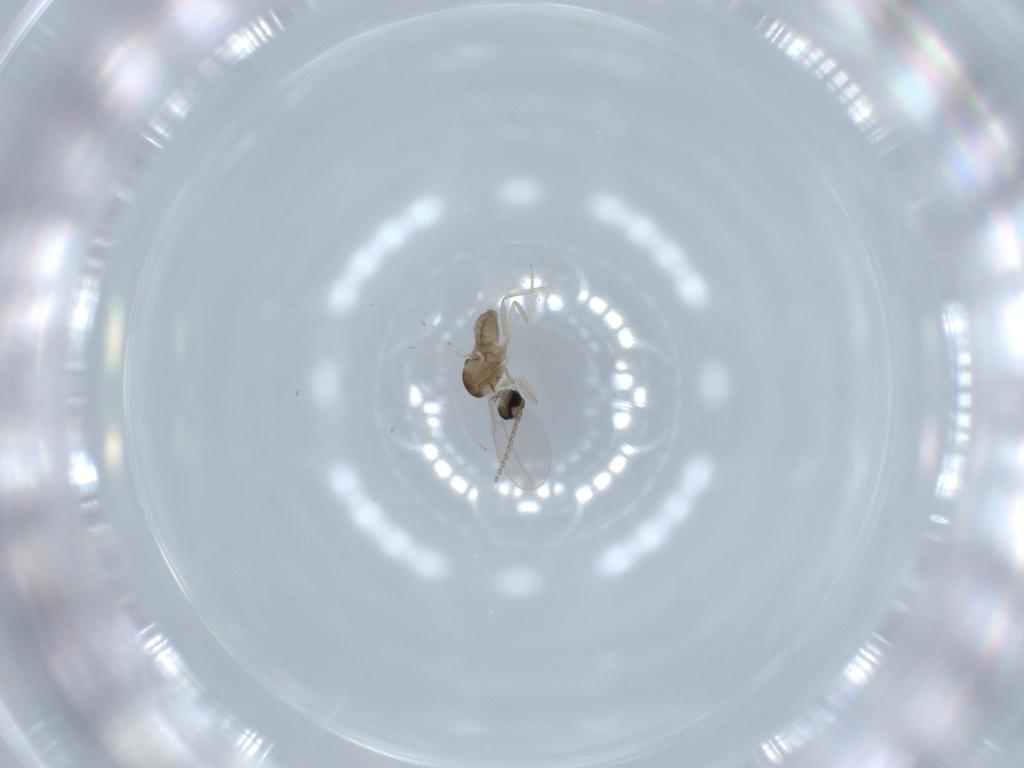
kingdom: Animalia
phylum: Arthropoda
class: Insecta
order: Diptera
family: Cecidomyiidae
